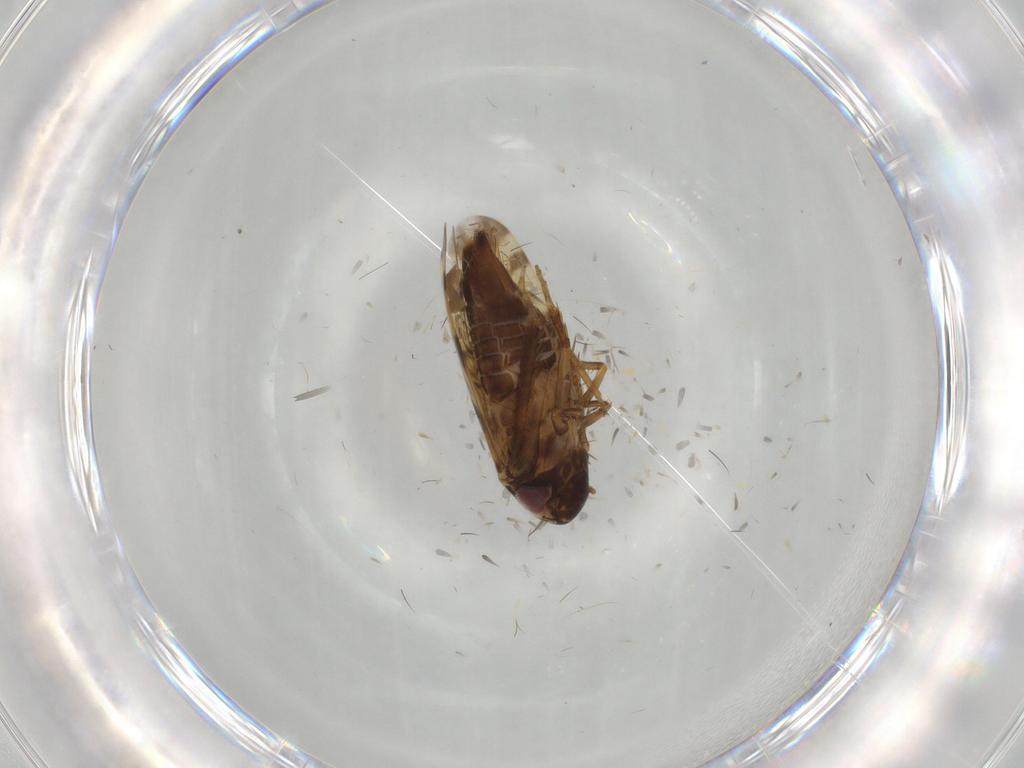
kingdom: Animalia
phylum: Arthropoda
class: Insecta
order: Hemiptera
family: Cicadellidae
